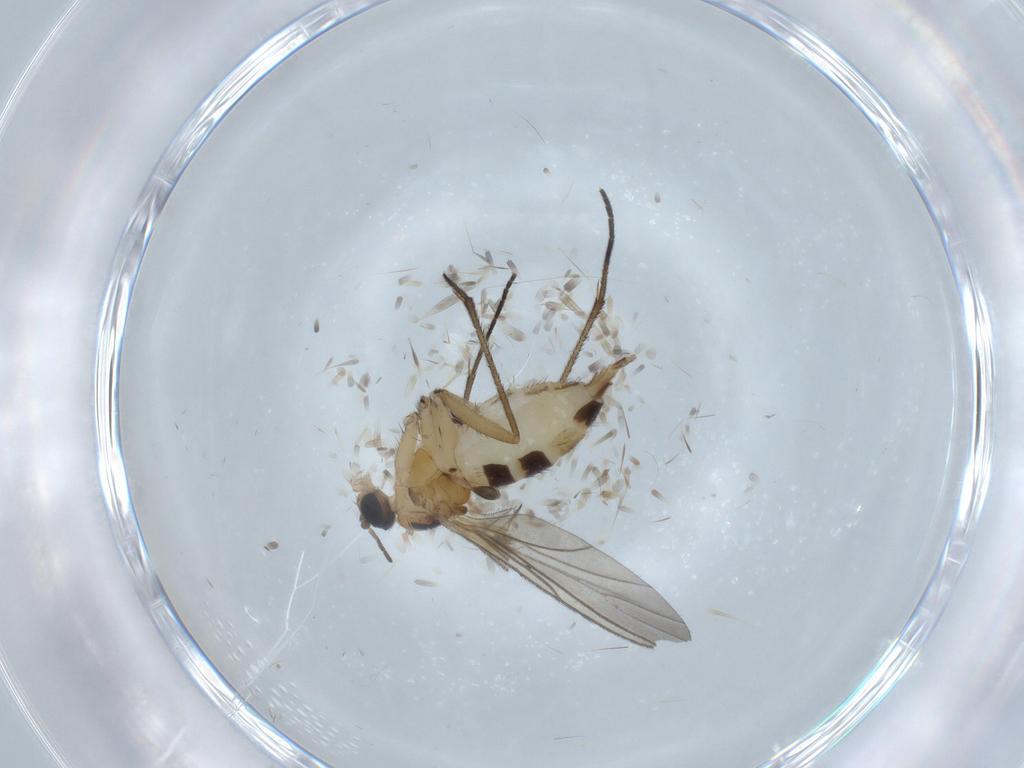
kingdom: Animalia
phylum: Arthropoda
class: Insecta
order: Diptera
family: Sciaridae
